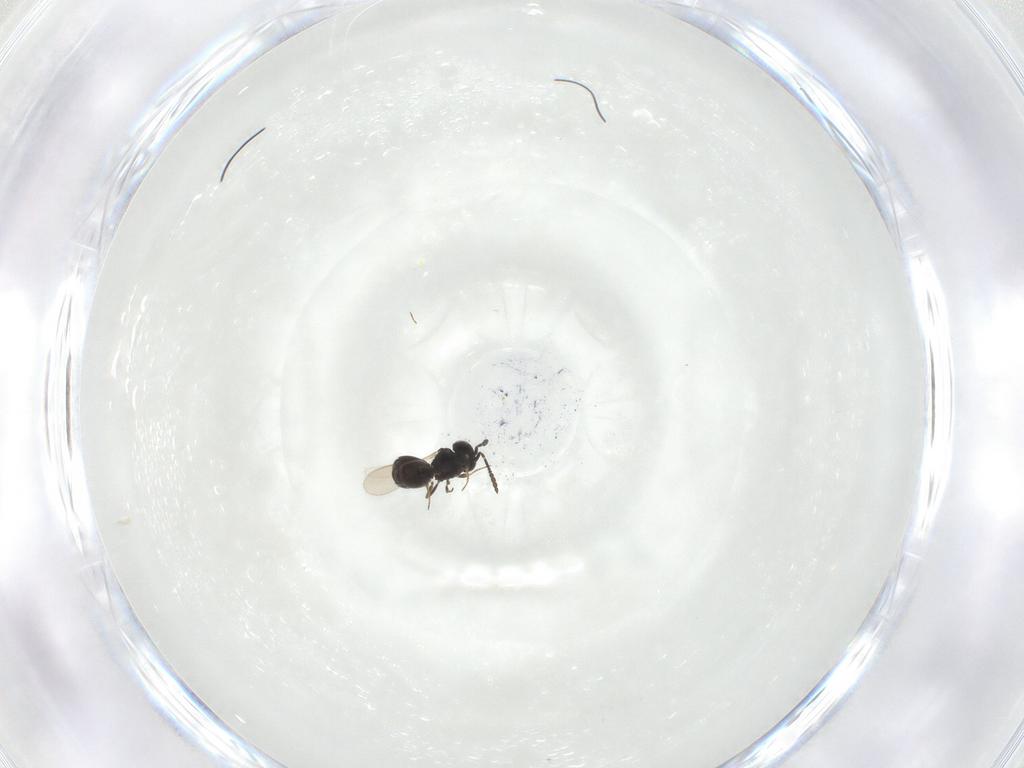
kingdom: Animalia
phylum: Arthropoda
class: Insecta
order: Hymenoptera
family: Scelionidae
